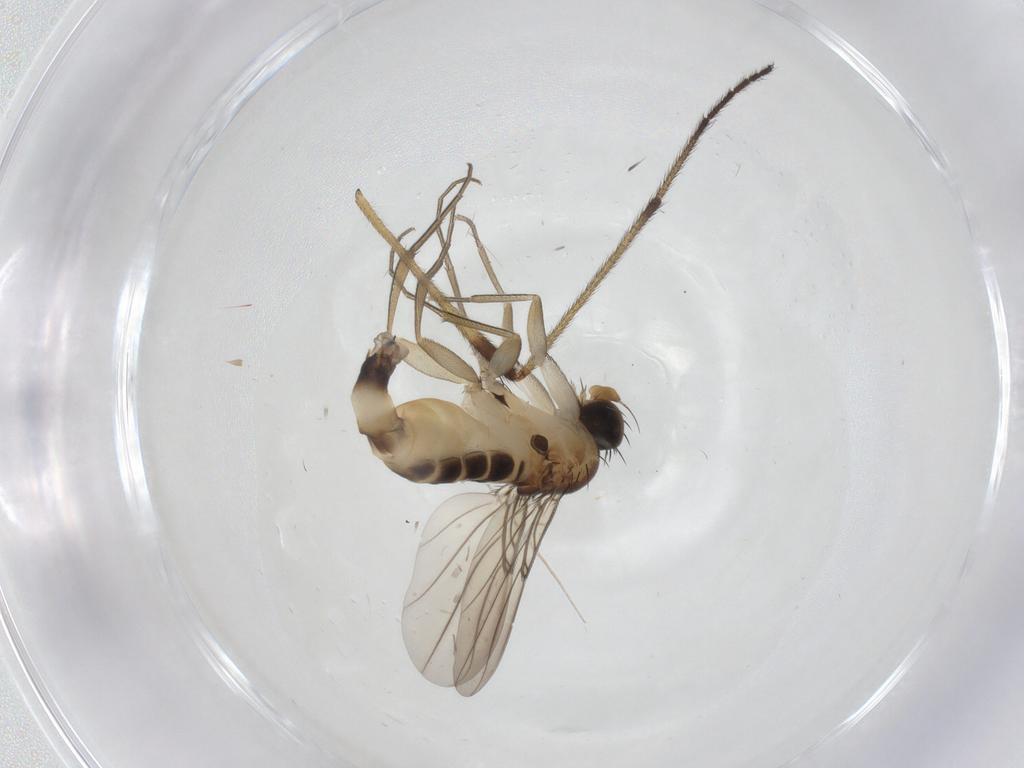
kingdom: Animalia
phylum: Arthropoda
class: Insecta
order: Diptera
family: Phoridae
